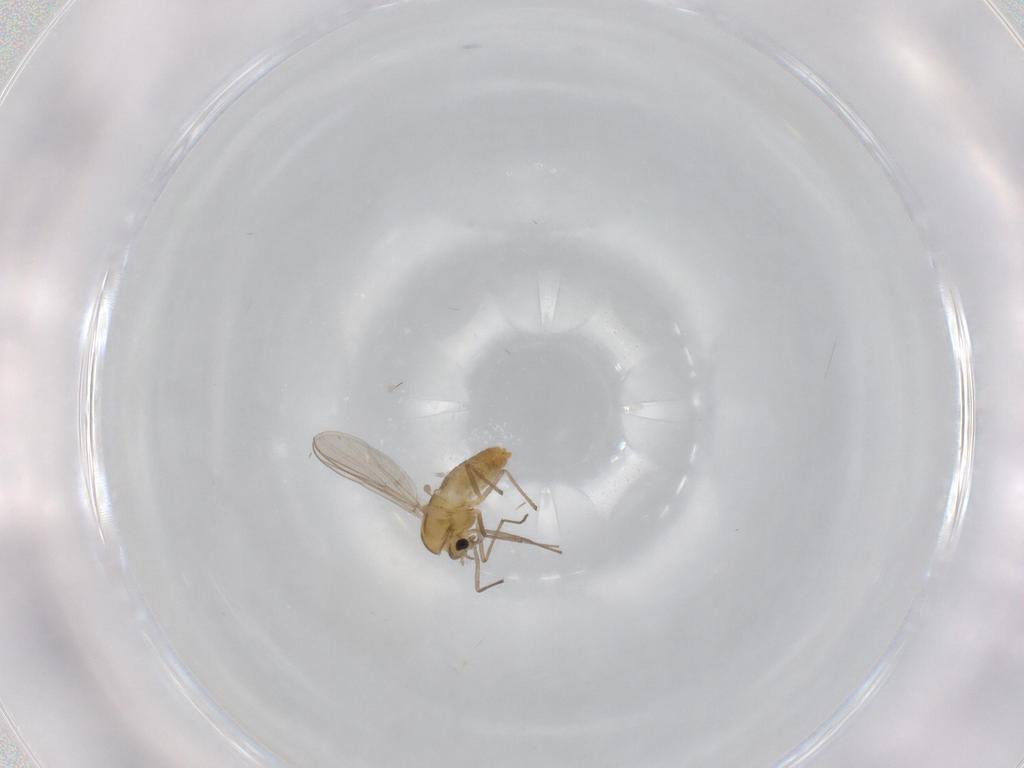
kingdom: Animalia
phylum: Arthropoda
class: Insecta
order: Diptera
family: Chironomidae
